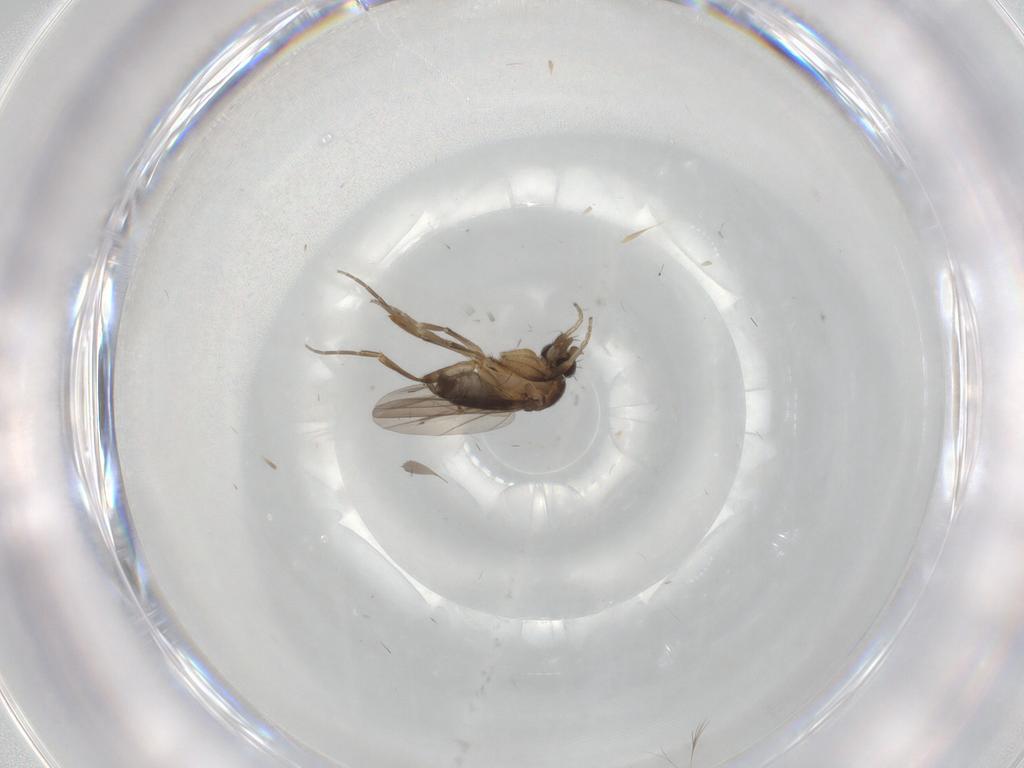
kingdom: Animalia
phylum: Arthropoda
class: Insecta
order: Diptera
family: Phoridae
